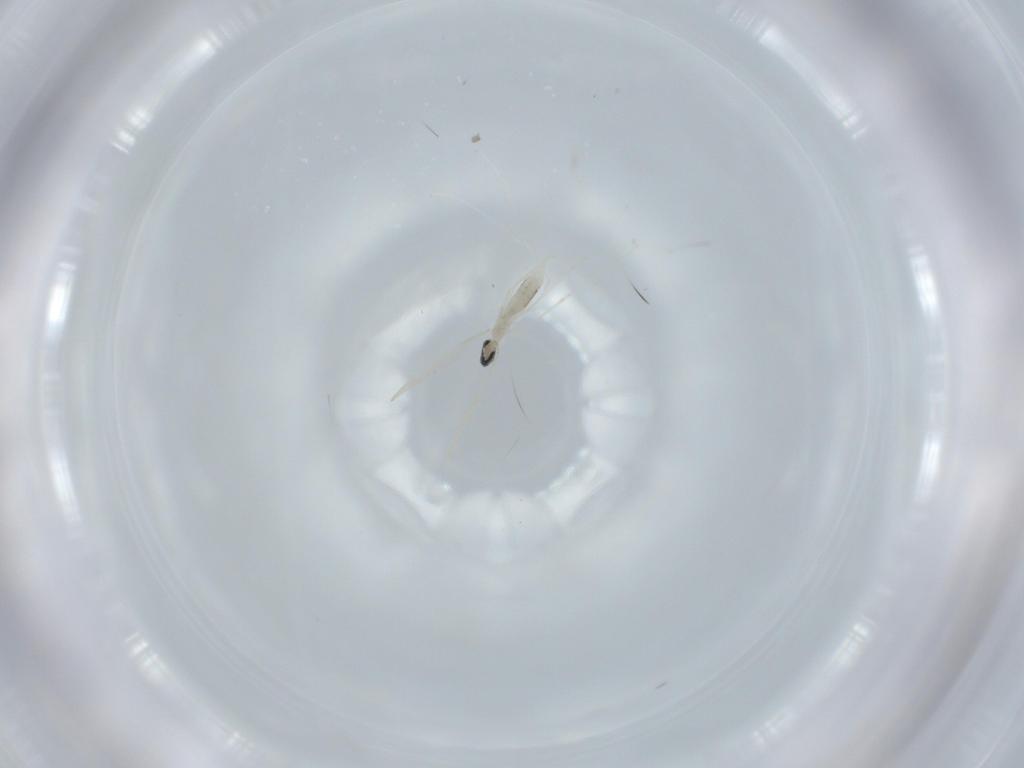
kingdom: Animalia
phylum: Arthropoda
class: Insecta
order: Diptera
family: Cecidomyiidae
